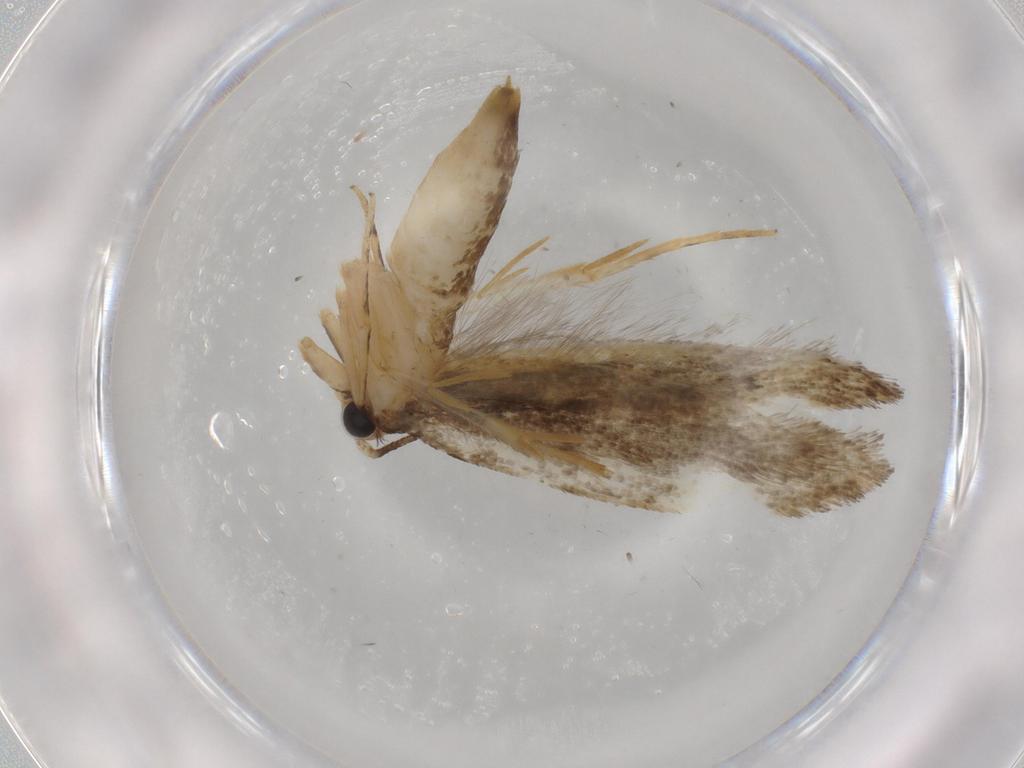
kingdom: Animalia
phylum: Arthropoda
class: Insecta
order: Lepidoptera
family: Tineidae
